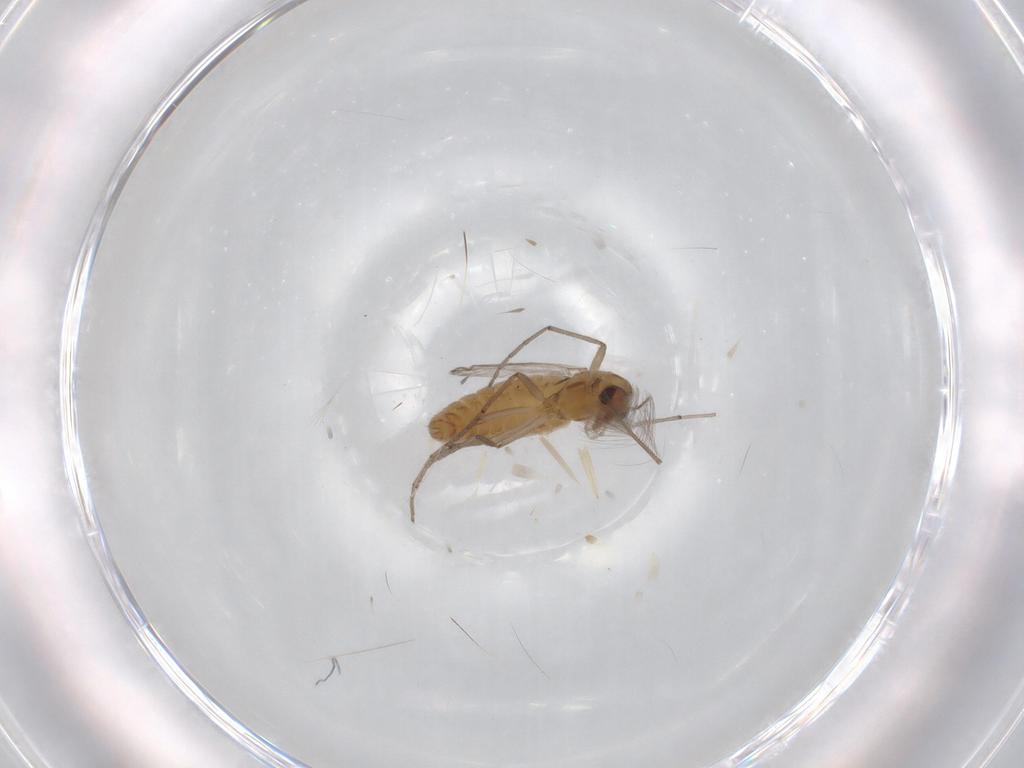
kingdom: Animalia
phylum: Arthropoda
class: Insecta
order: Diptera
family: Chironomidae
